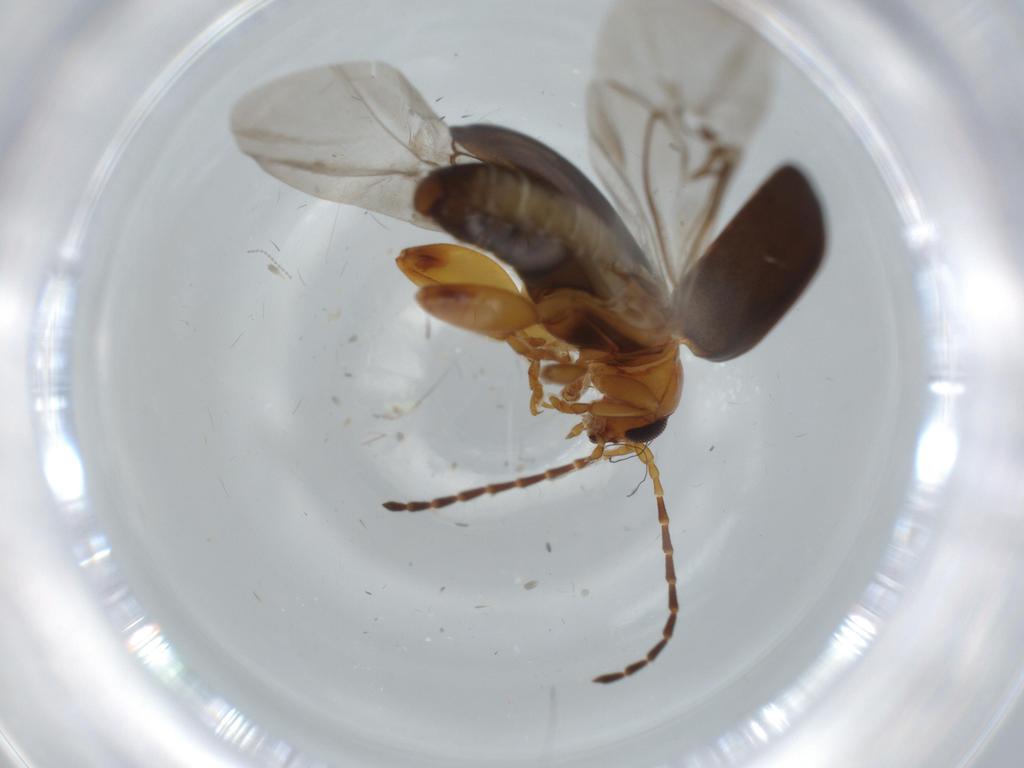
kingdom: Animalia
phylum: Arthropoda
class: Insecta
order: Coleoptera
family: Chrysomelidae
